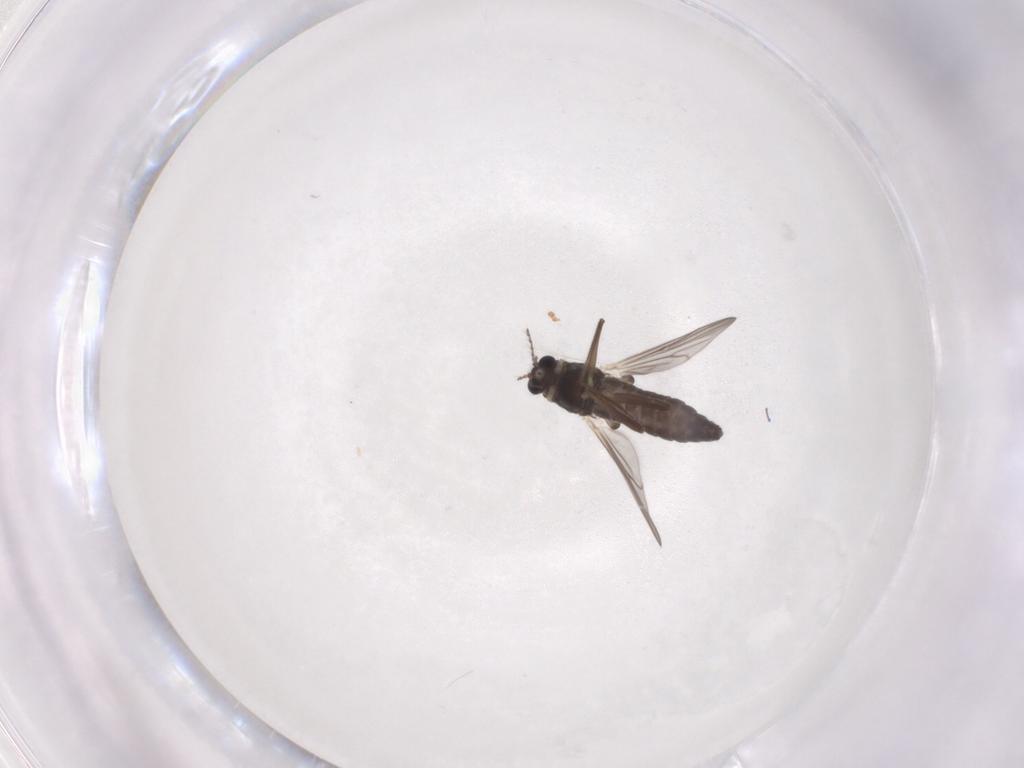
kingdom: Animalia
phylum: Arthropoda
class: Insecta
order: Diptera
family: Chironomidae
